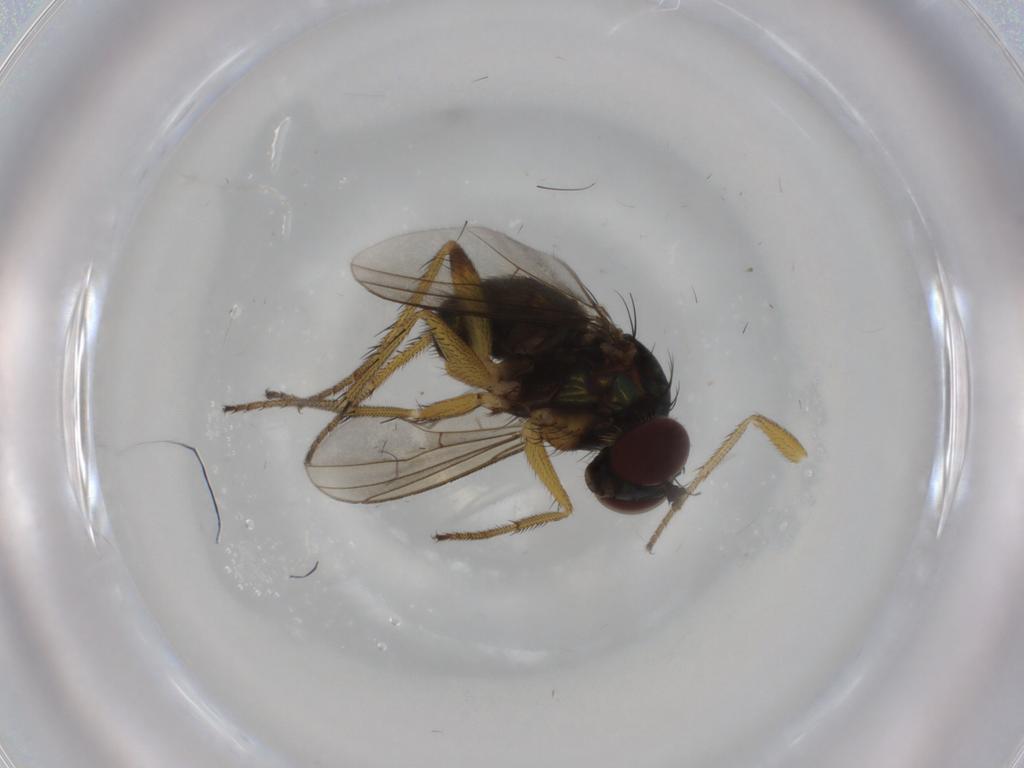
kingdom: Animalia
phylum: Arthropoda
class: Insecta
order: Diptera
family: Dolichopodidae
